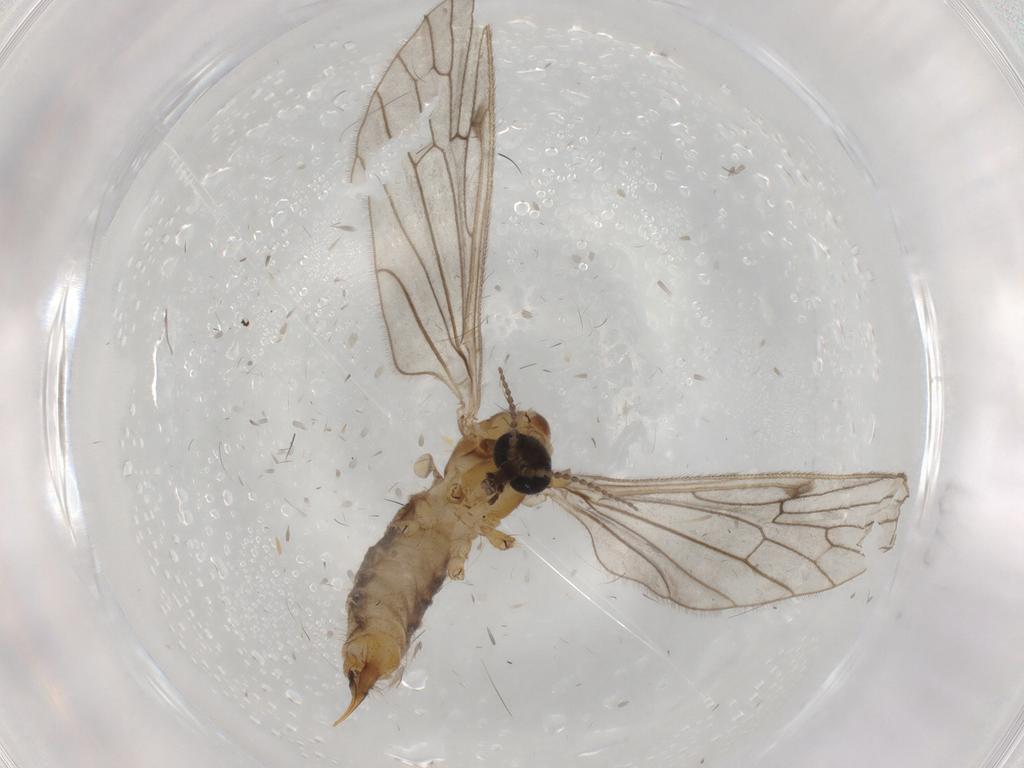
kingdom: Animalia
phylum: Arthropoda
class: Insecta
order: Diptera
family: Limoniidae
